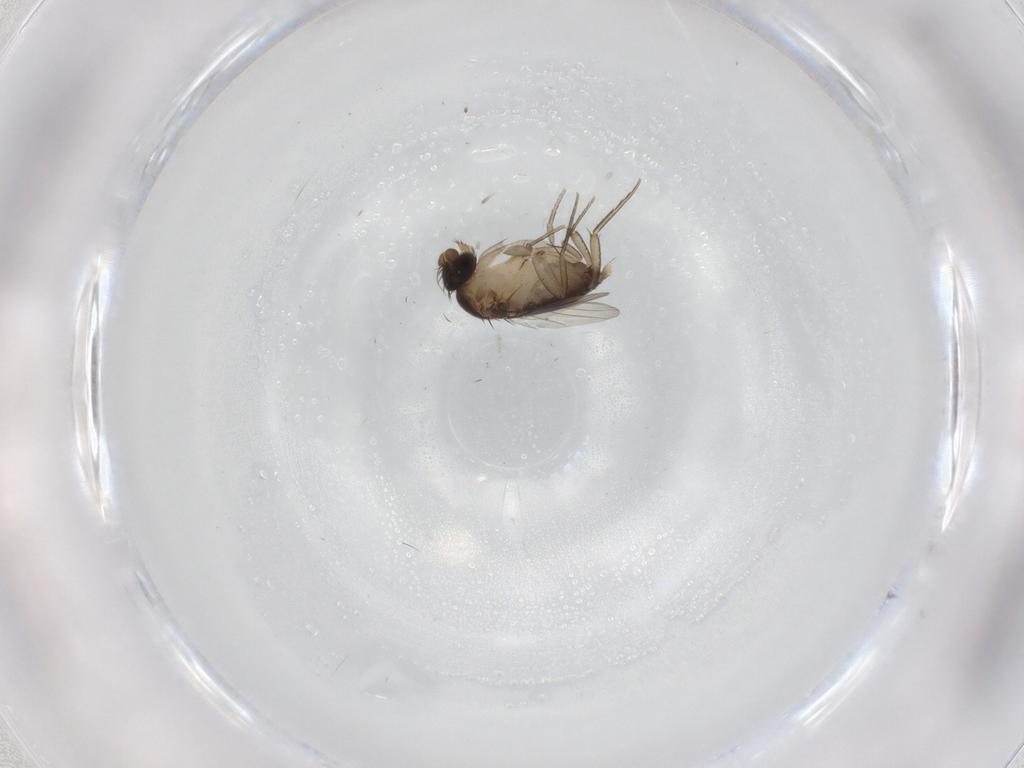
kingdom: Animalia
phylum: Arthropoda
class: Insecta
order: Diptera
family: Phoridae
